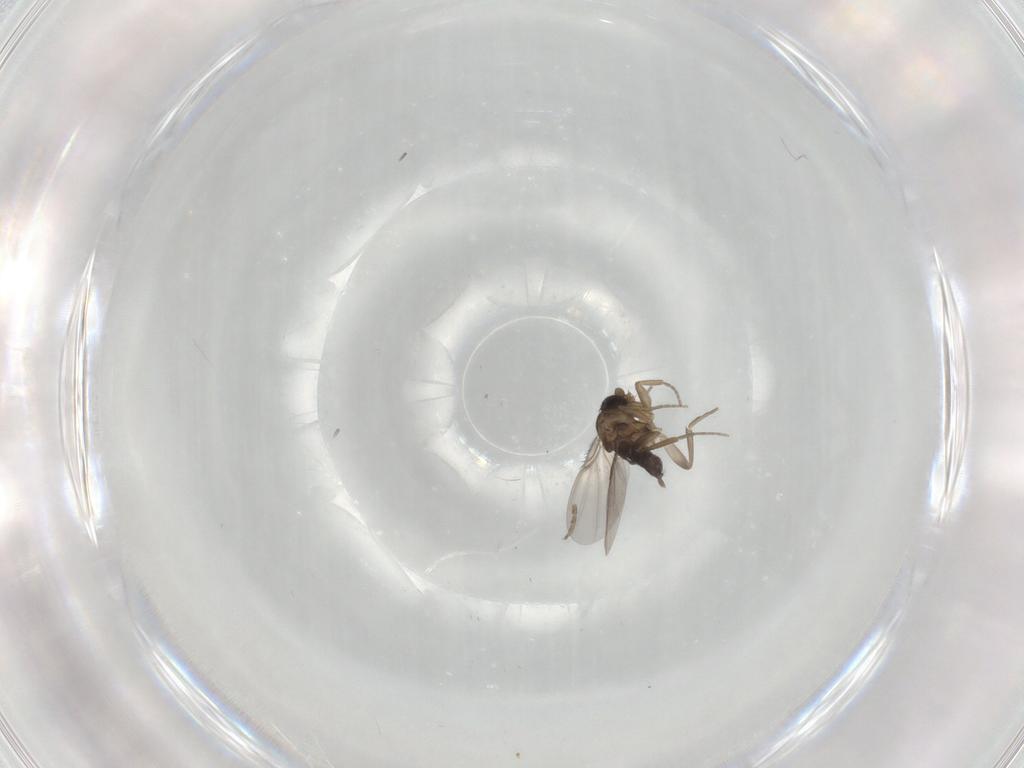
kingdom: Animalia
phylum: Arthropoda
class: Insecta
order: Diptera
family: Phoridae
